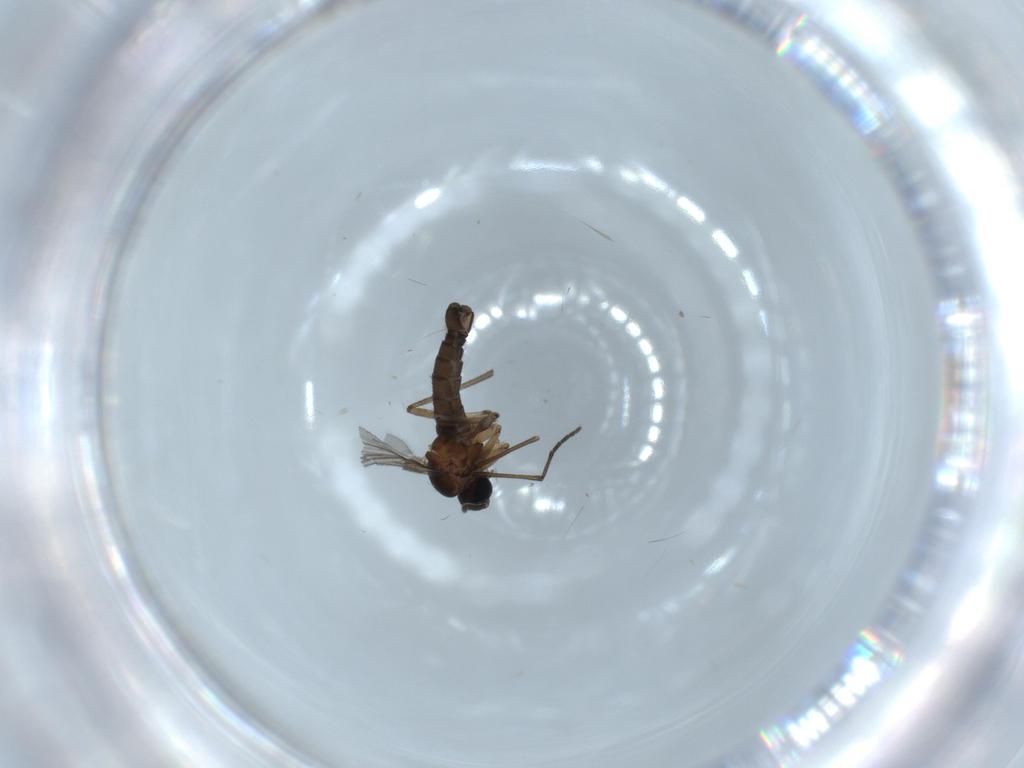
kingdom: Animalia
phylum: Arthropoda
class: Insecta
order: Diptera
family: Sciaridae
